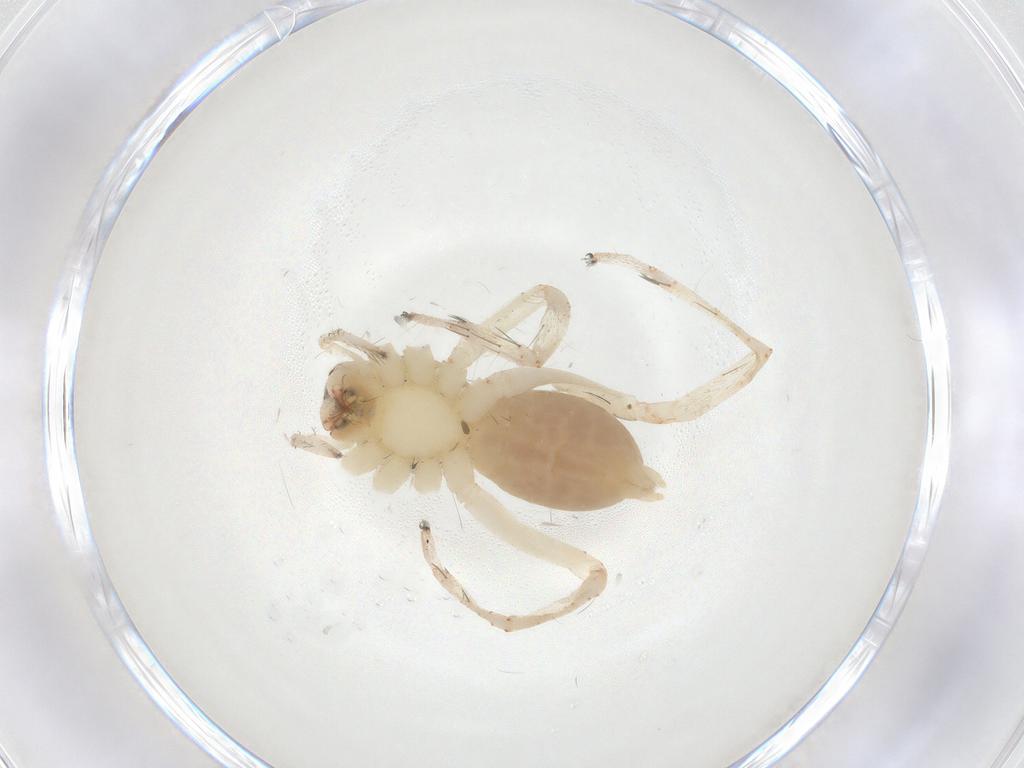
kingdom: Animalia
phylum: Arthropoda
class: Arachnida
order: Araneae
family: Anyphaenidae
